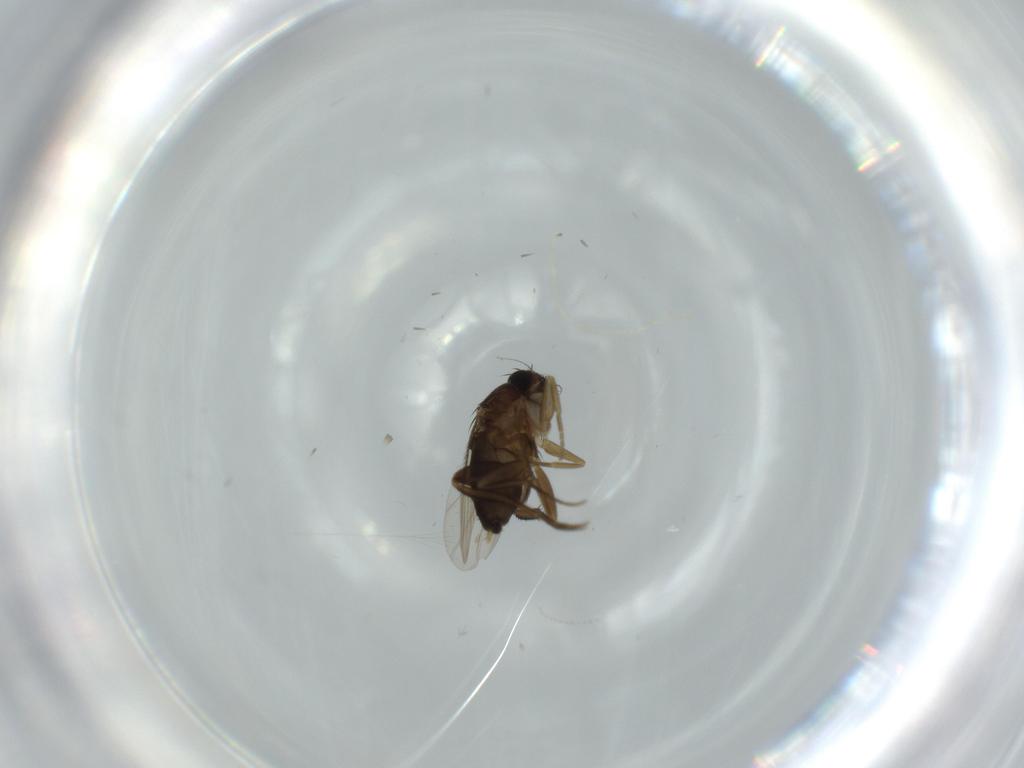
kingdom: Animalia
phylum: Arthropoda
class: Insecta
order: Diptera
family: Phoridae
